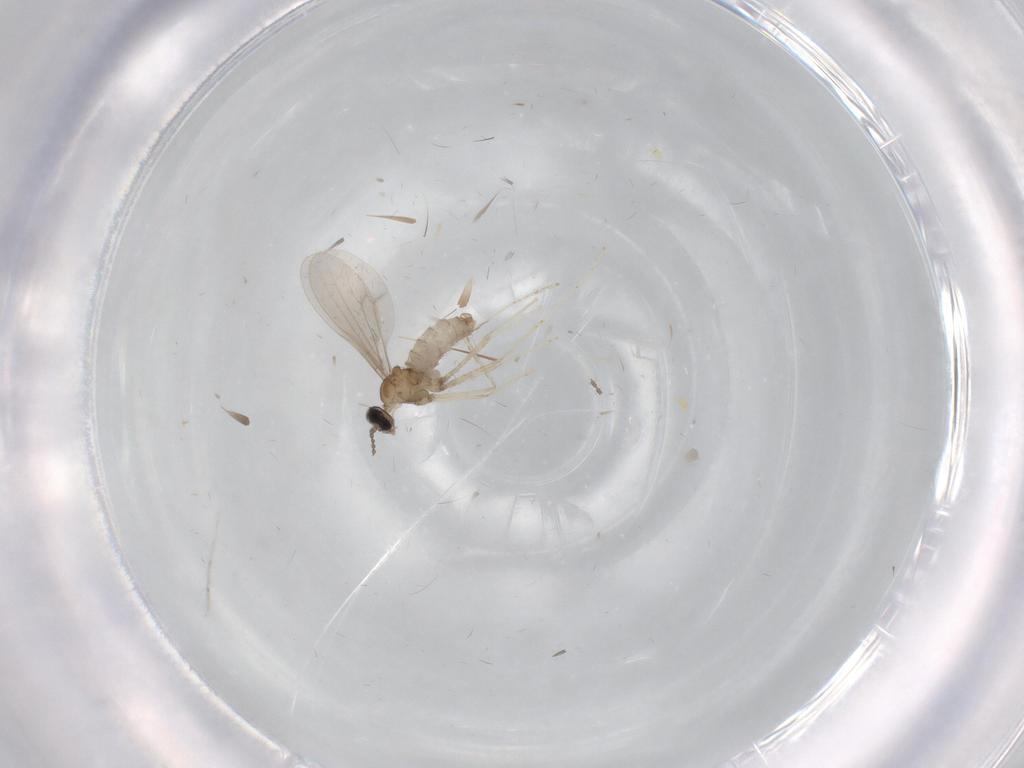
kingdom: Animalia
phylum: Arthropoda
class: Insecta
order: Diptera
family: Cecidomyiidae
